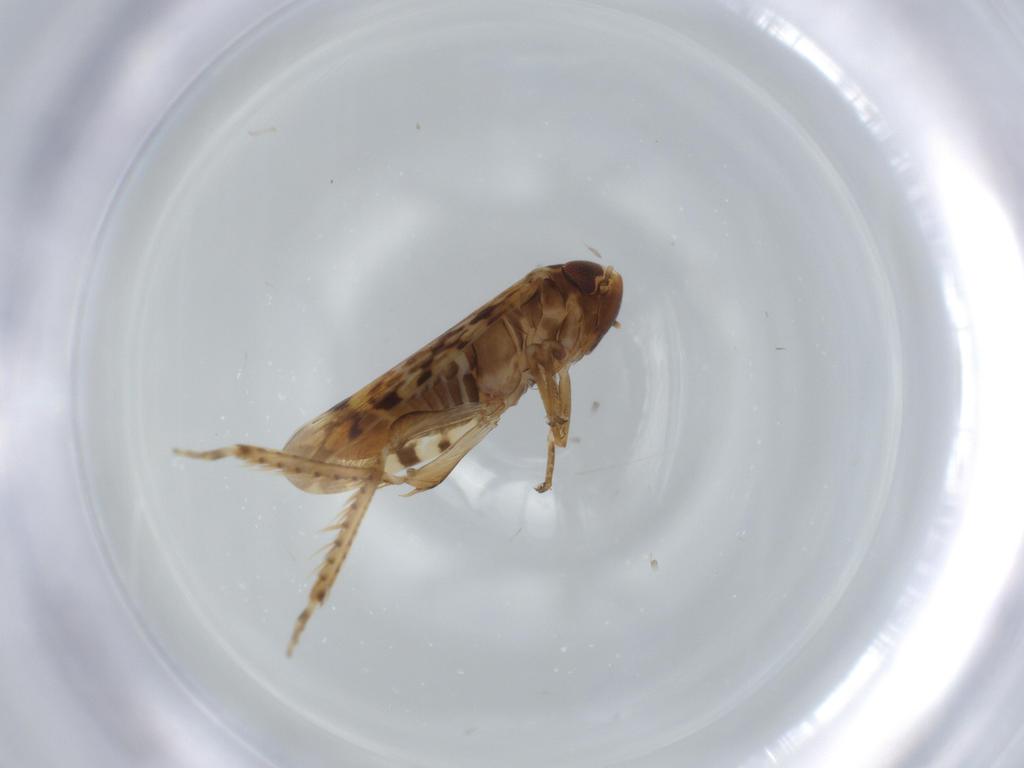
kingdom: Animalia
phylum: Arthropoda
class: Insecta
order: Hemiptera
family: Cicadellidae
